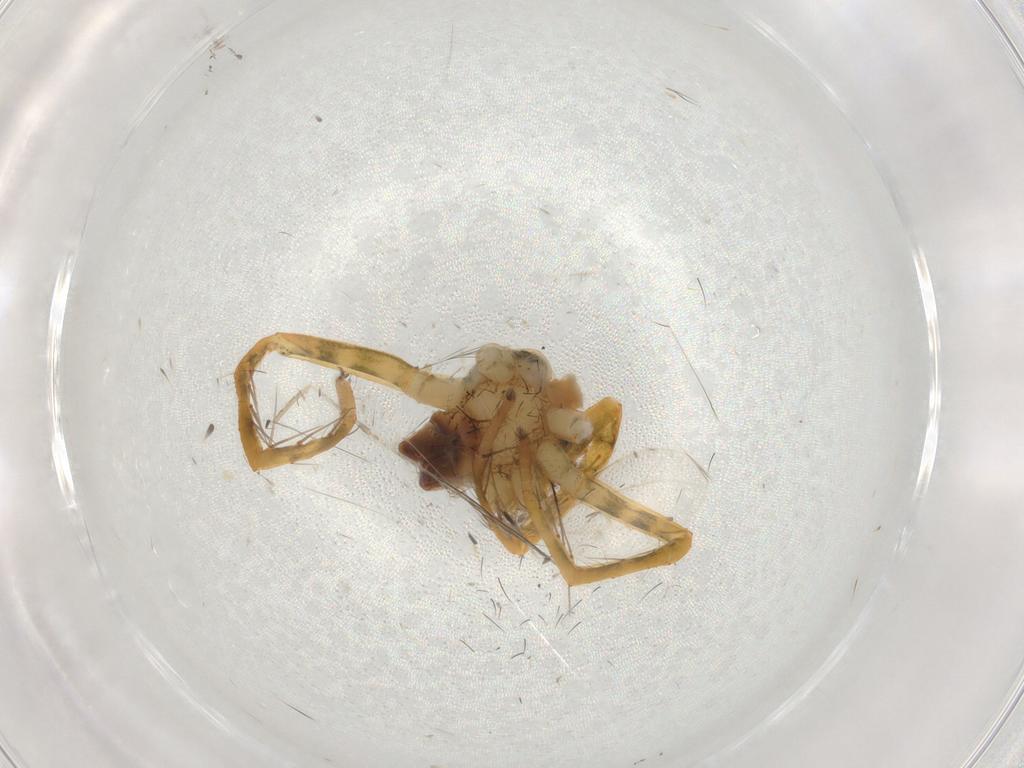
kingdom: Animalia
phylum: Arthropoda
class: Arachnida
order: Araneae
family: Trechaleidae
